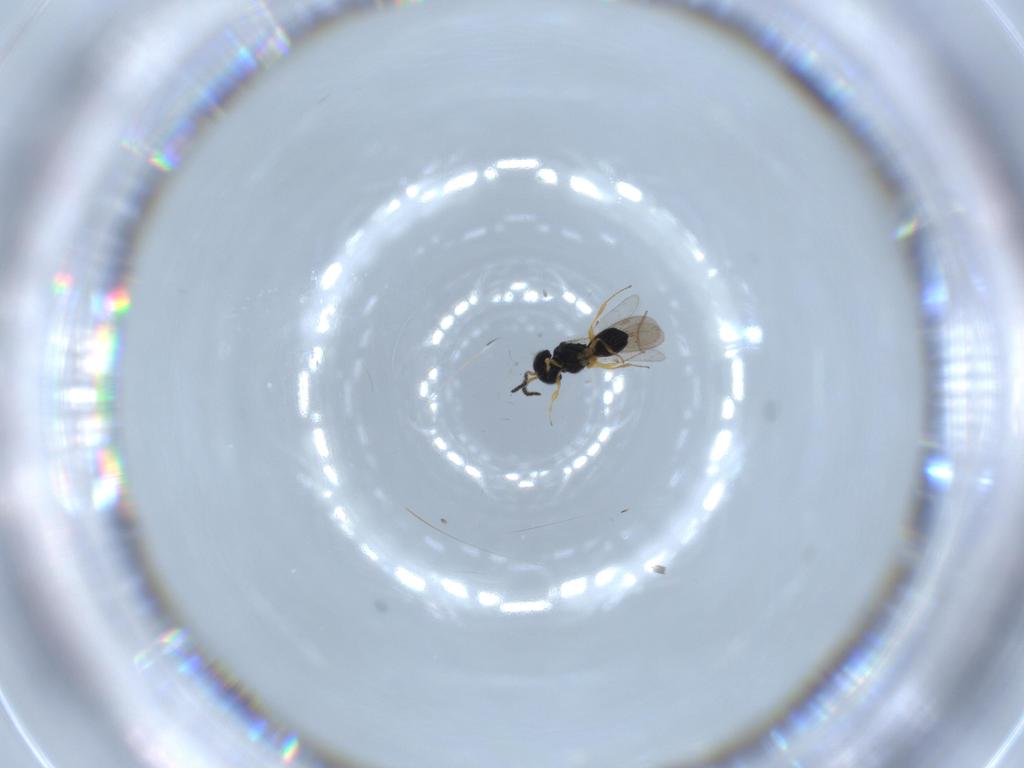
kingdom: Animalia
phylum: Arthropoda
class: Insecta
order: Hymenoptera
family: Scelionidae
